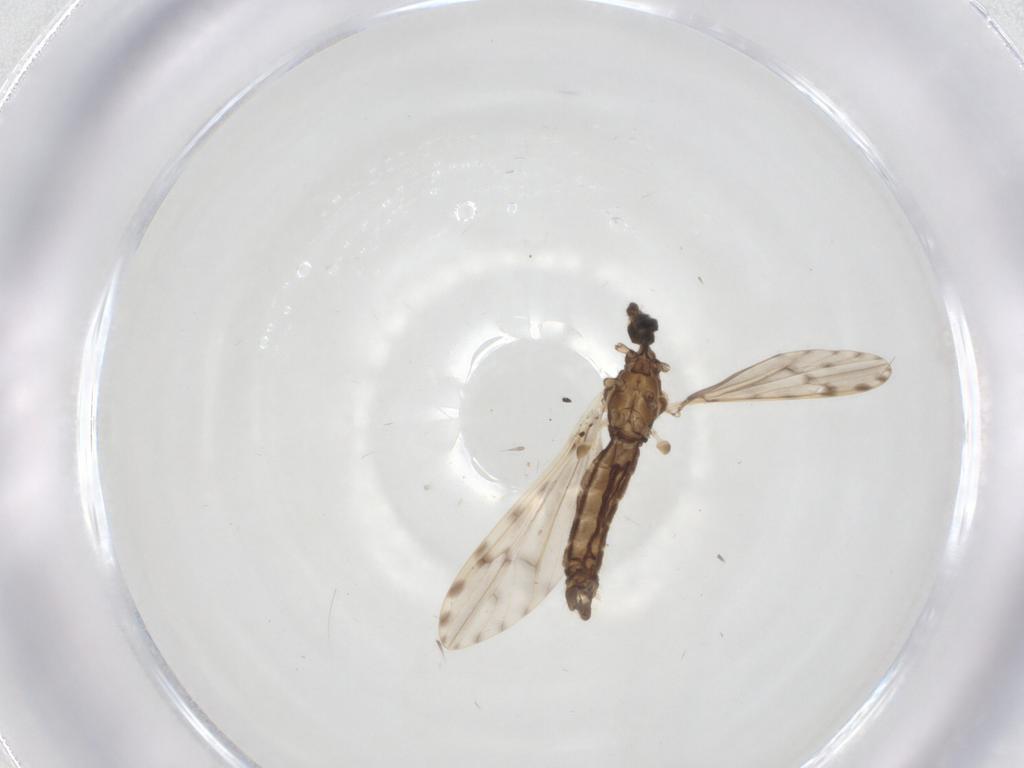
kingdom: Animalia
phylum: Arthropoda
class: Insecta
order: Diptera
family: Limoniidae
